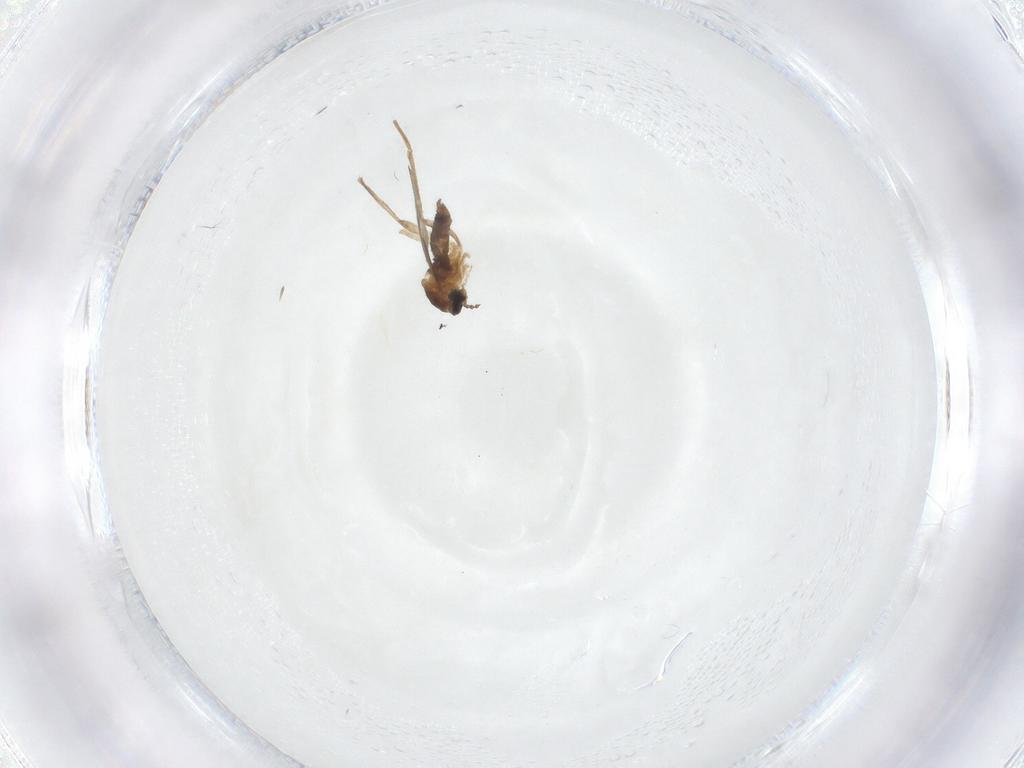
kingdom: Animalia
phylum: Arthropoda
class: Insecta
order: Diptera
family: Cecidomyiidae
